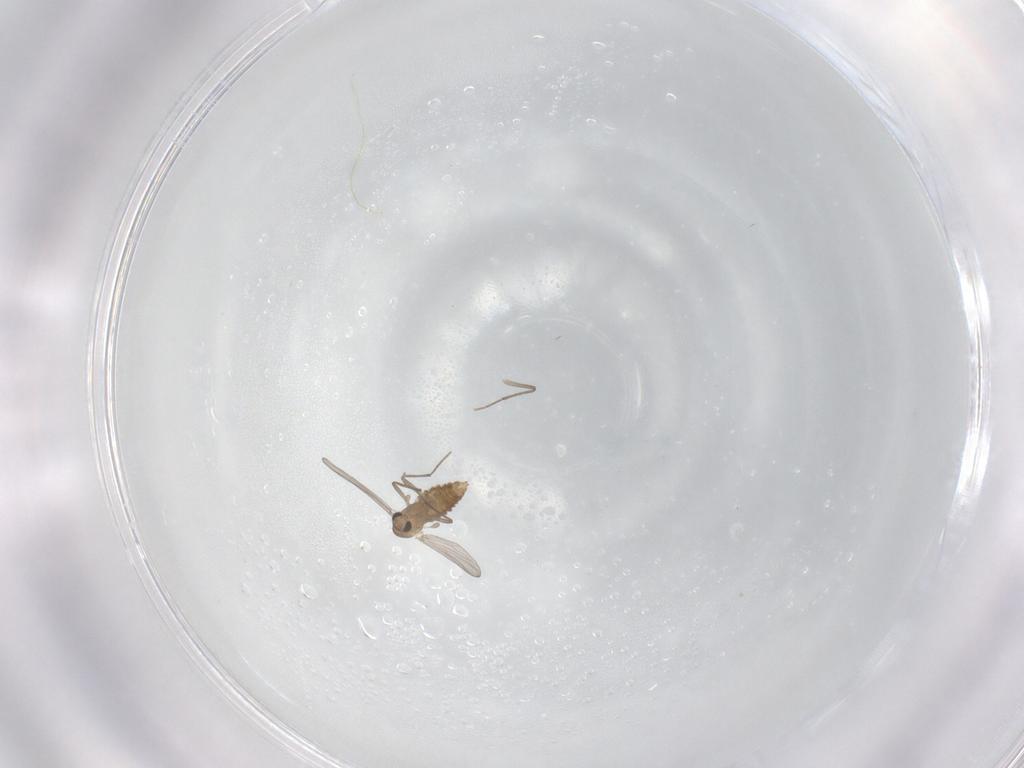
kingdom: Animalia
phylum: Arthropoda
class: Insecta
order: Diptera
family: Chironomidae
